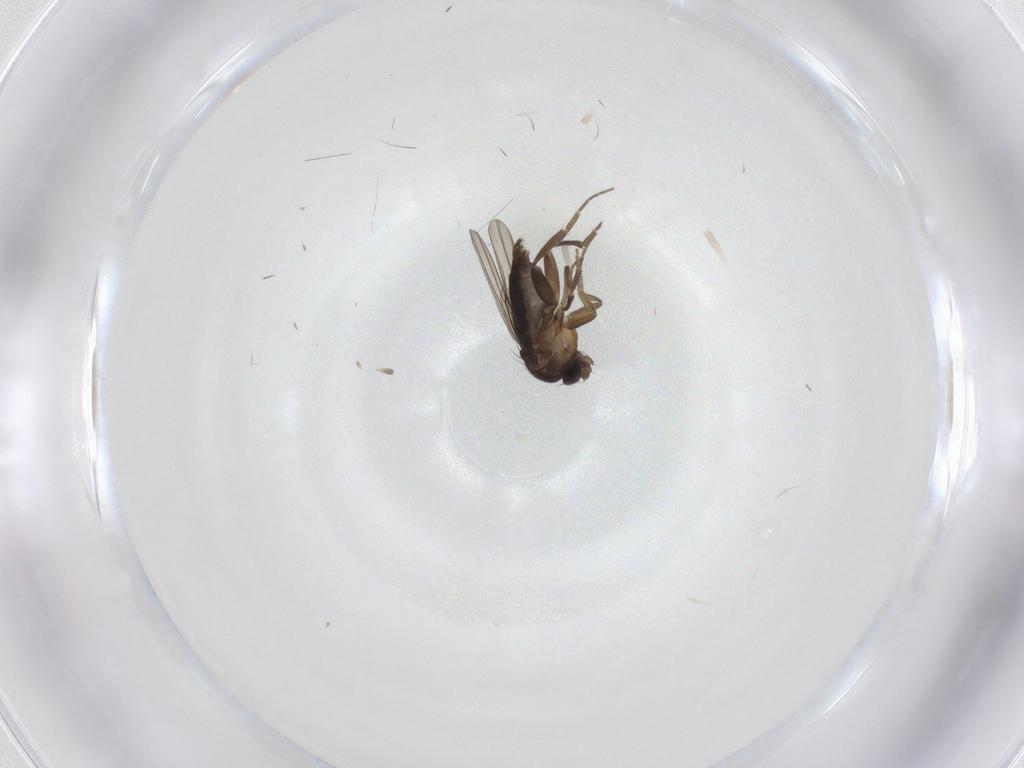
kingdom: Animalia
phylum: Arthropoda
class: Insecta
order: Diptera
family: Phoridae
